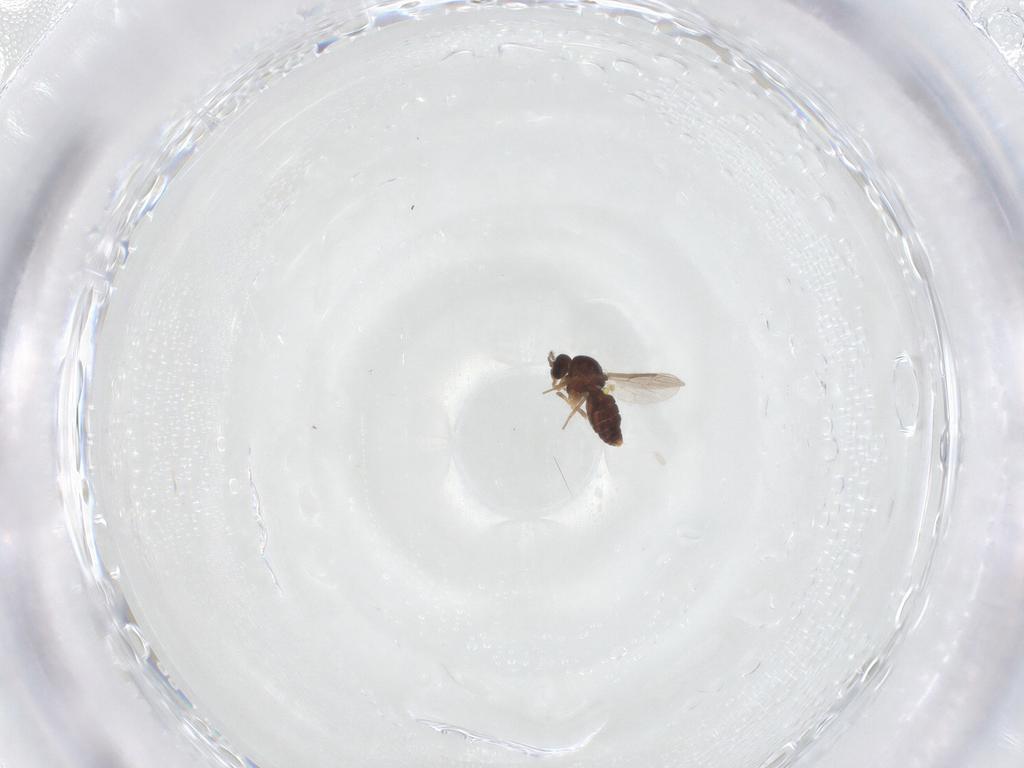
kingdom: Animalia
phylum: Arthropoda
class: Insecta
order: Diptera
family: Ceratopogonidae
